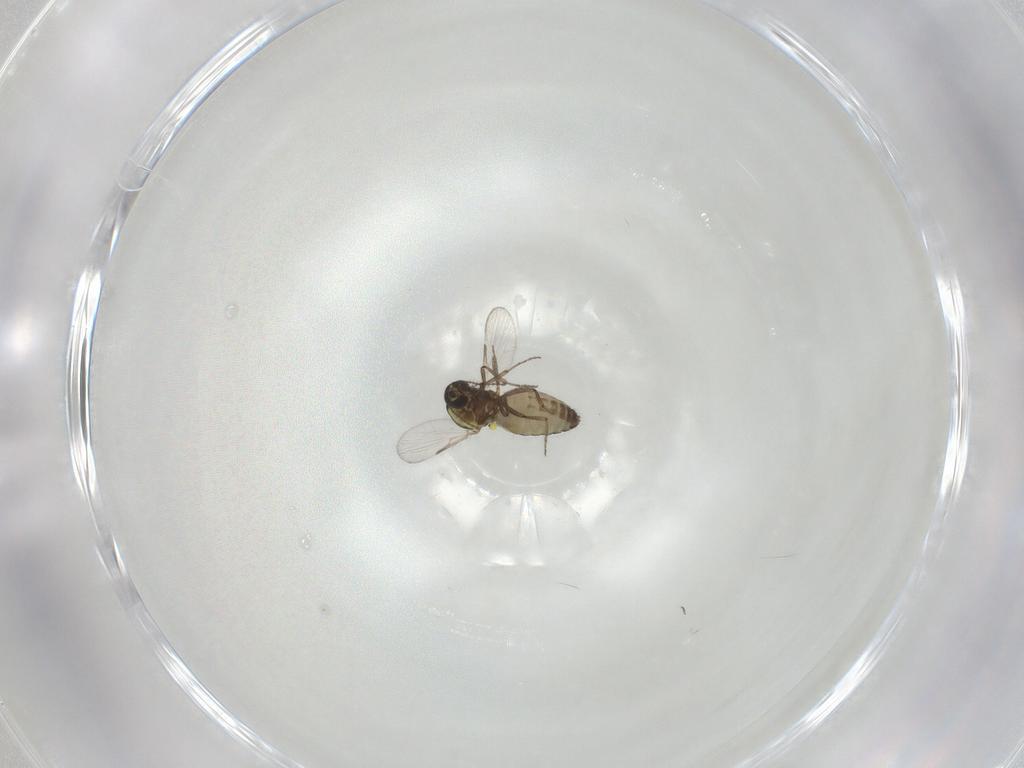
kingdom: Animalia
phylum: Arthropoda
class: Insecta
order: Diptera
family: Ceratopogonidae
